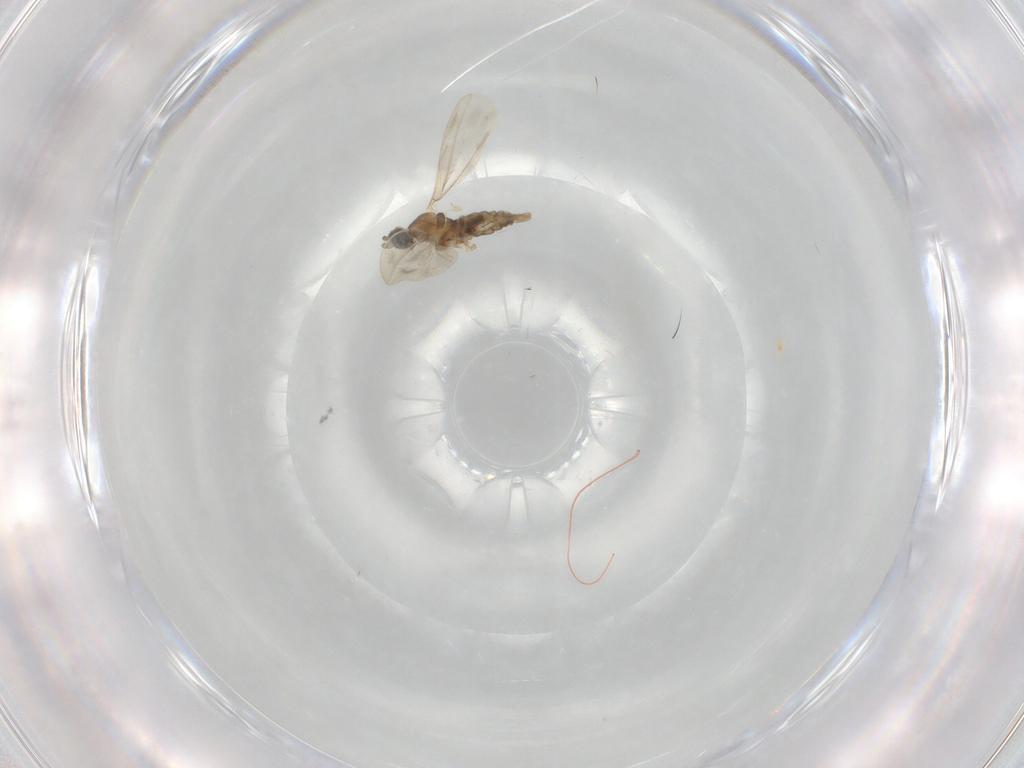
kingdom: Animalia
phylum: Arthropoda
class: Insecta
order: Diptera
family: Cecidomyiidae
